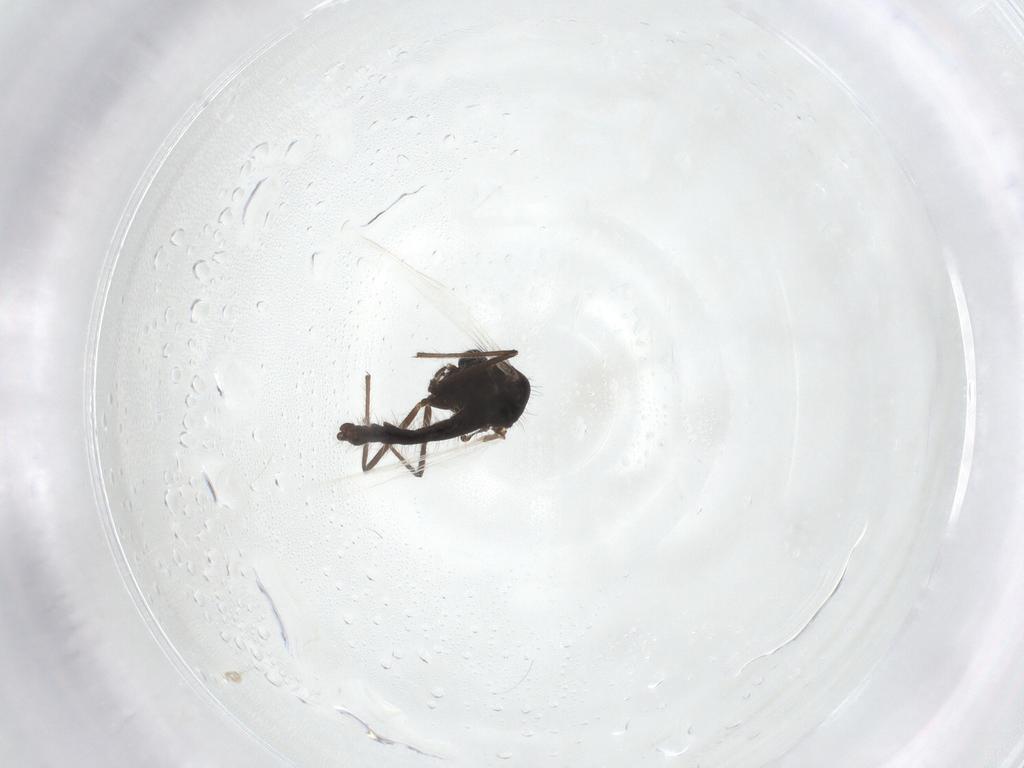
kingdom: Animalia
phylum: Arthropoda
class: Insecta
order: Diptera
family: Chironomidae
